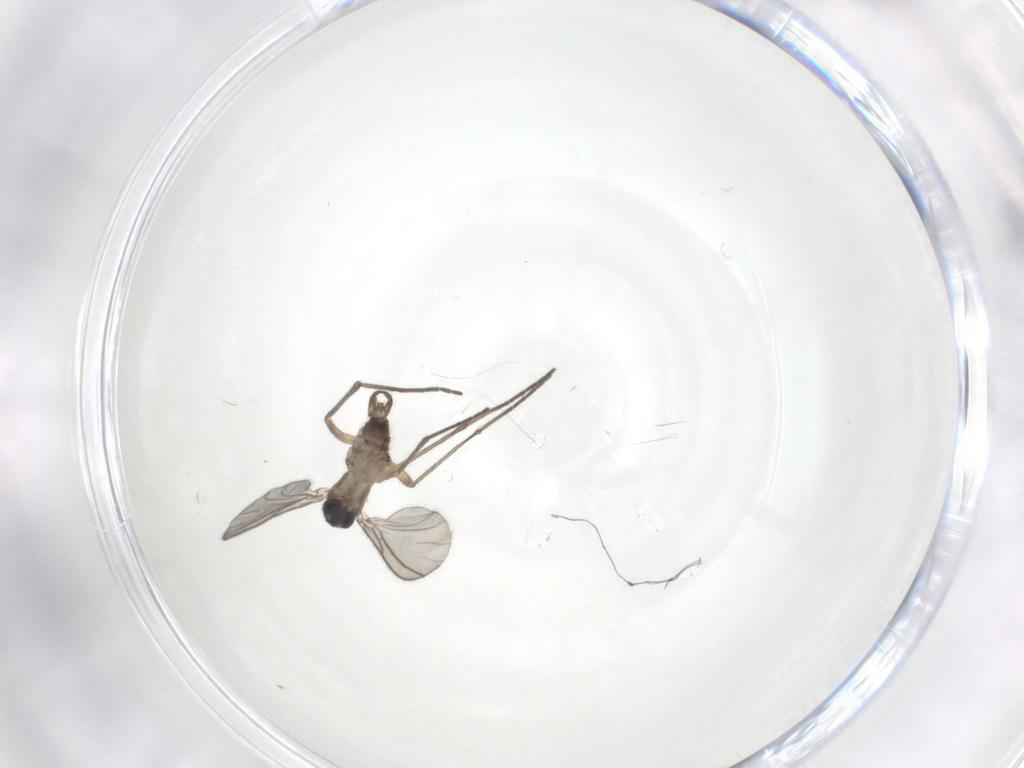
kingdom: Animalia
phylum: Arthropoda
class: Insecta
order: Diptera
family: Sciaridae
